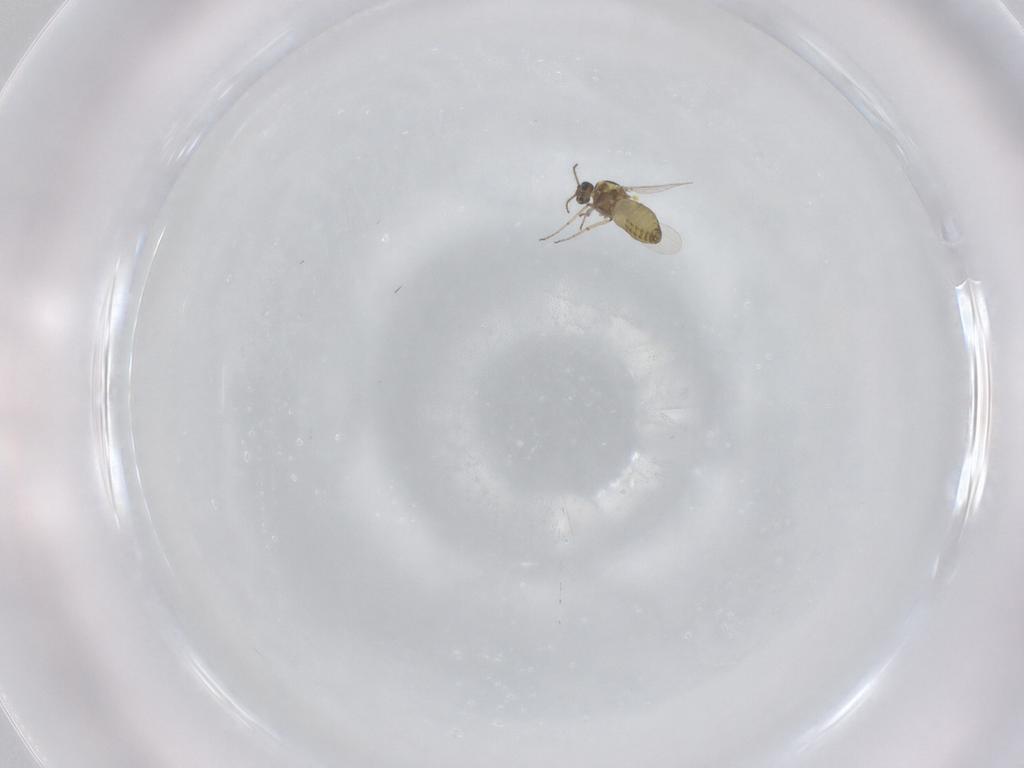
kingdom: Animalia
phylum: Arthropoda
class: Insecta
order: Diptera
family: Ceratopogonidae
